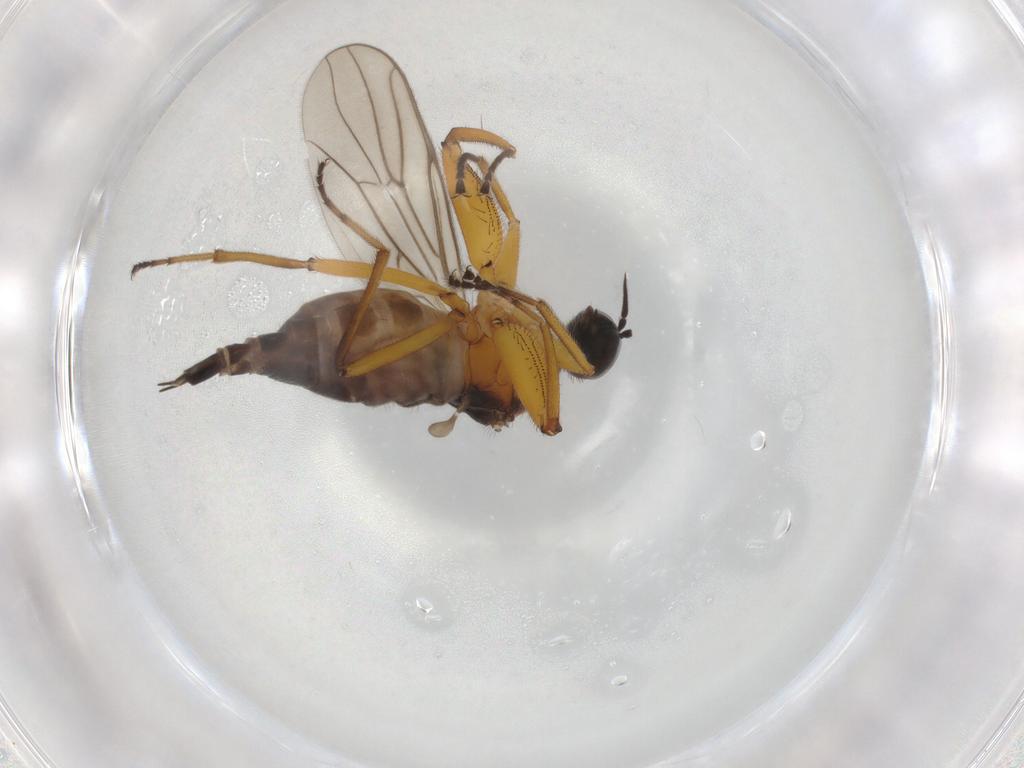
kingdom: Animalia
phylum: Arthropoda
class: Insecta
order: Diptera
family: Hybotidae
